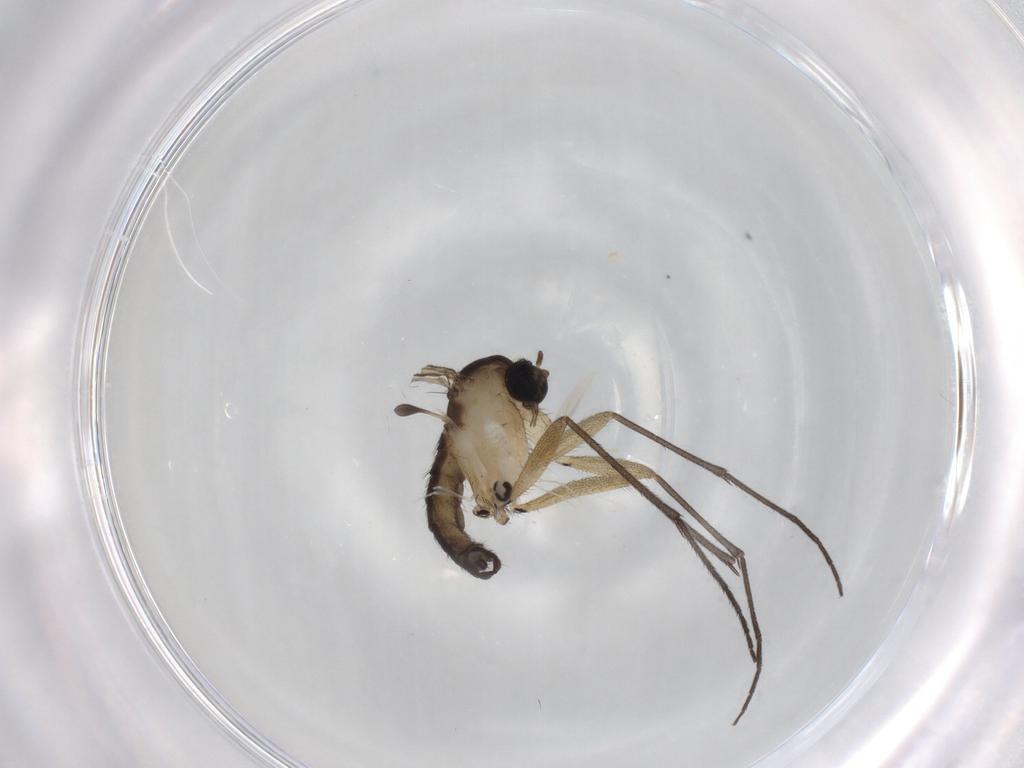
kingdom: Animalia
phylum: Arthropoda
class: Insecta
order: Diptera
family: Sciaridae
